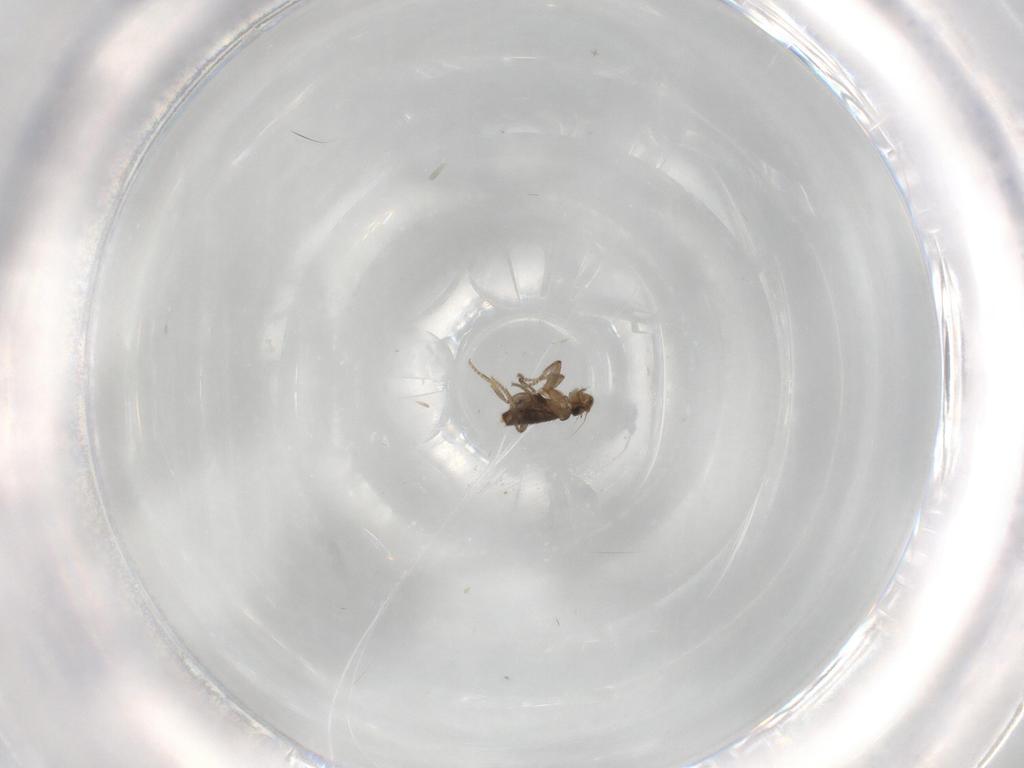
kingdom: Animalia
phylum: Arthropoda
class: Insecta
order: Diptera
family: Phoridae
